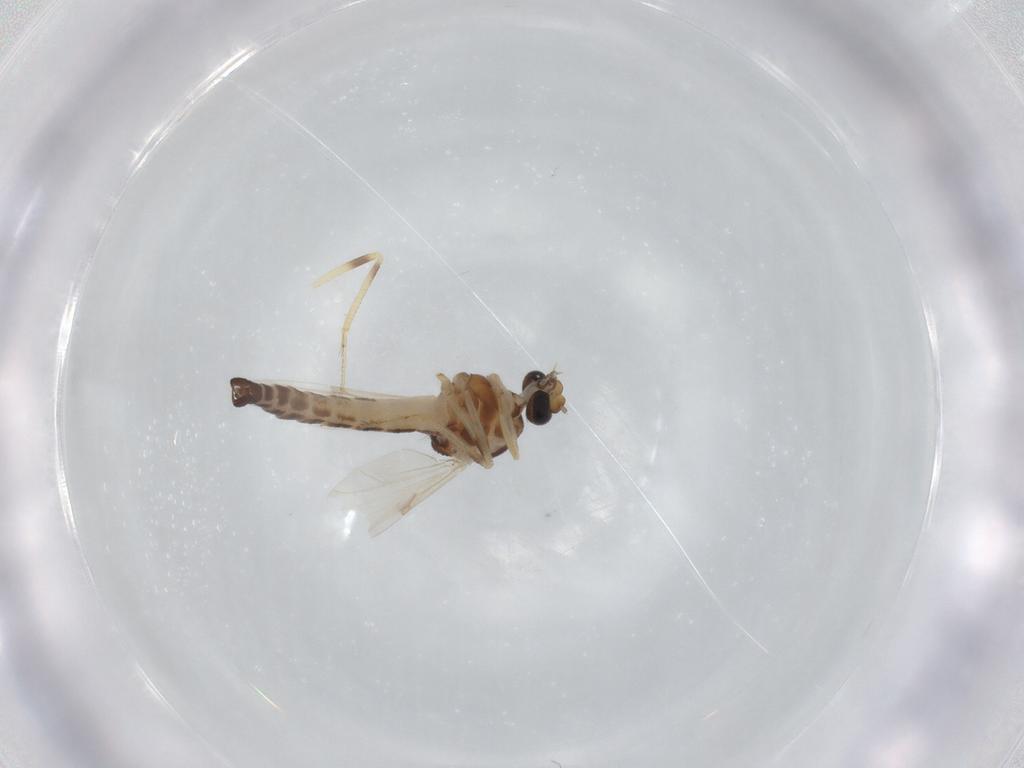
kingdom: Animalia
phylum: Arthropoda
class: Insecta
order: Diptera
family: Ceratopogonidae
